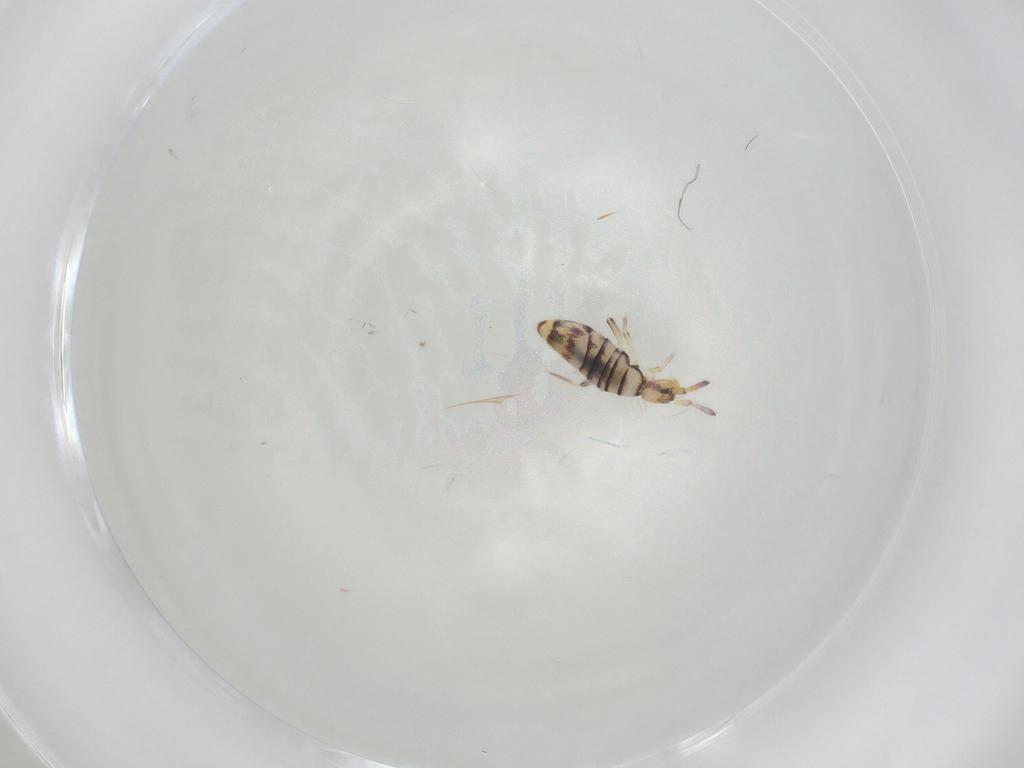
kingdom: Animalia
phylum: Arthropoda
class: Collembola
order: Entomobryomorpha
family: Entomobryidae
